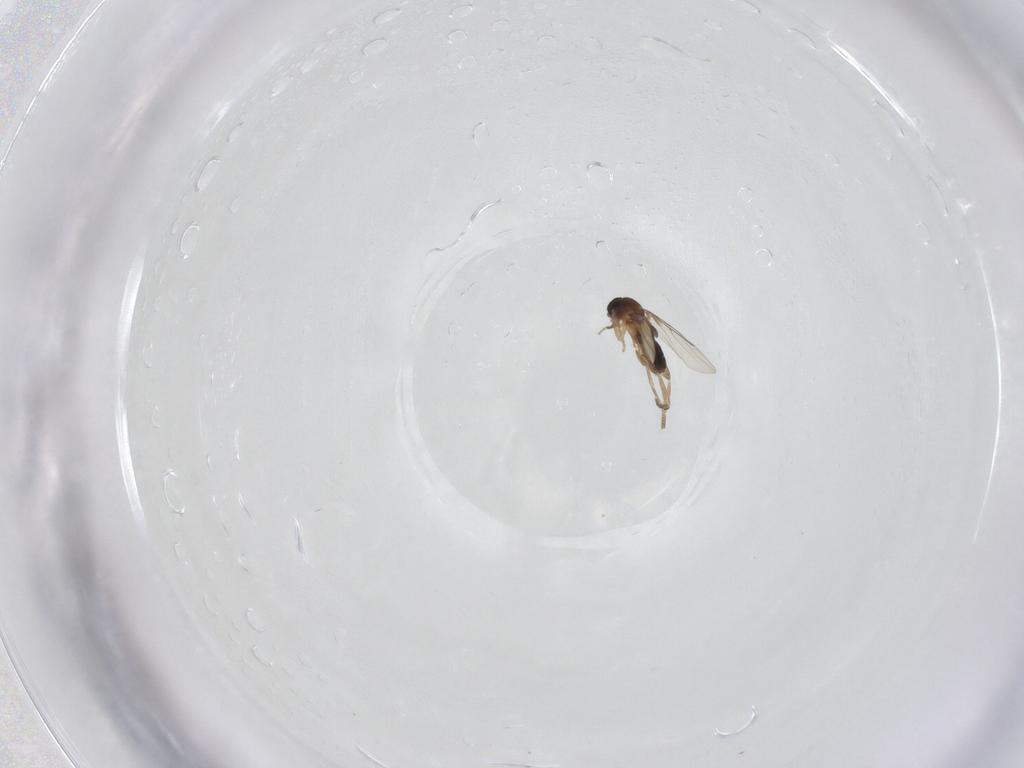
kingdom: Animalia
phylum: Arthropoda
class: Insecta
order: Diptera
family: Phoridae
